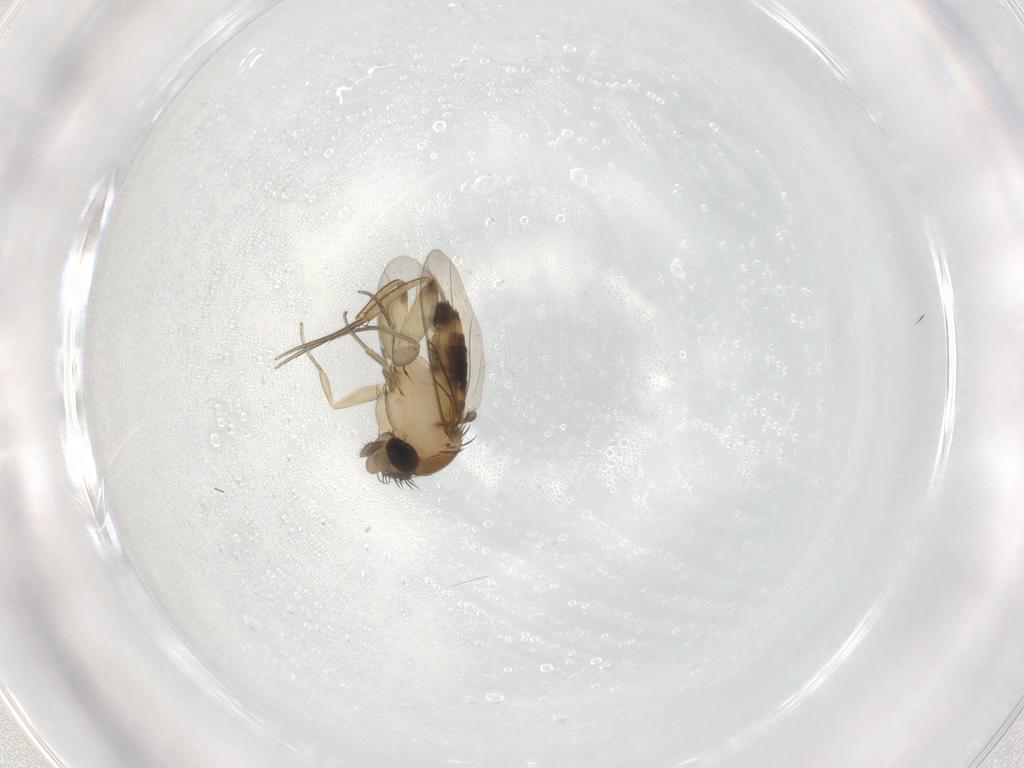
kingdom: Animalia
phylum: Arthropoda
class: Insecta
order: Diptera
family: Phoridae
